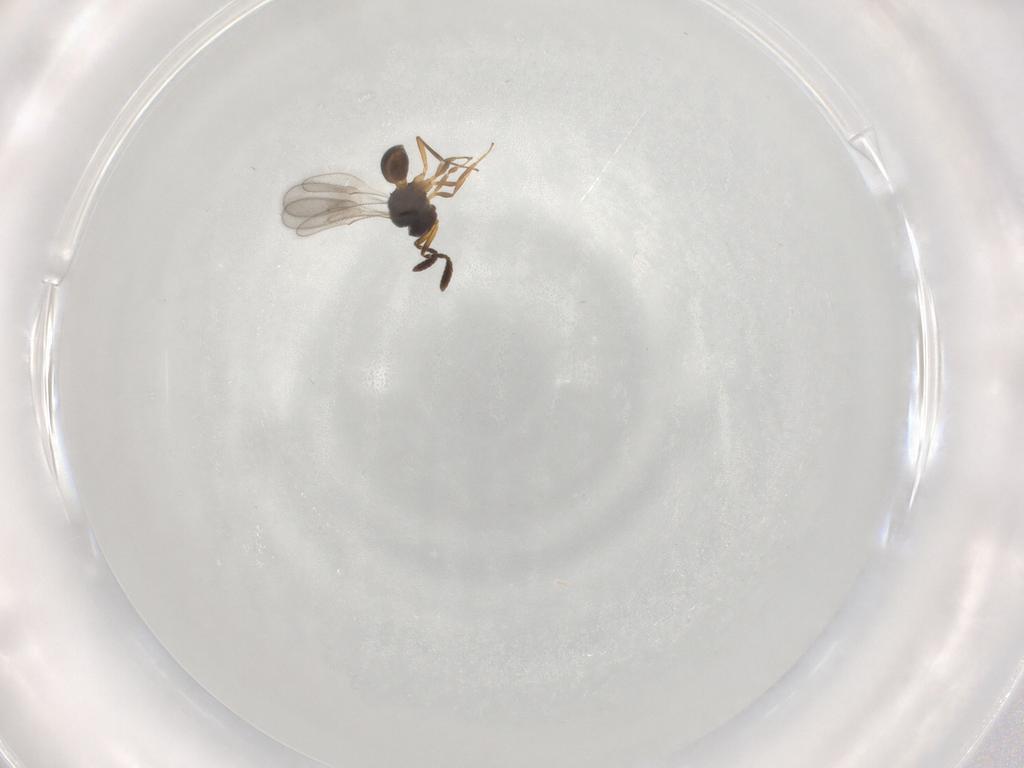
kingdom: Animalia
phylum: Arthropoda
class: Insecta
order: Hymenoptera
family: Scelionidae
